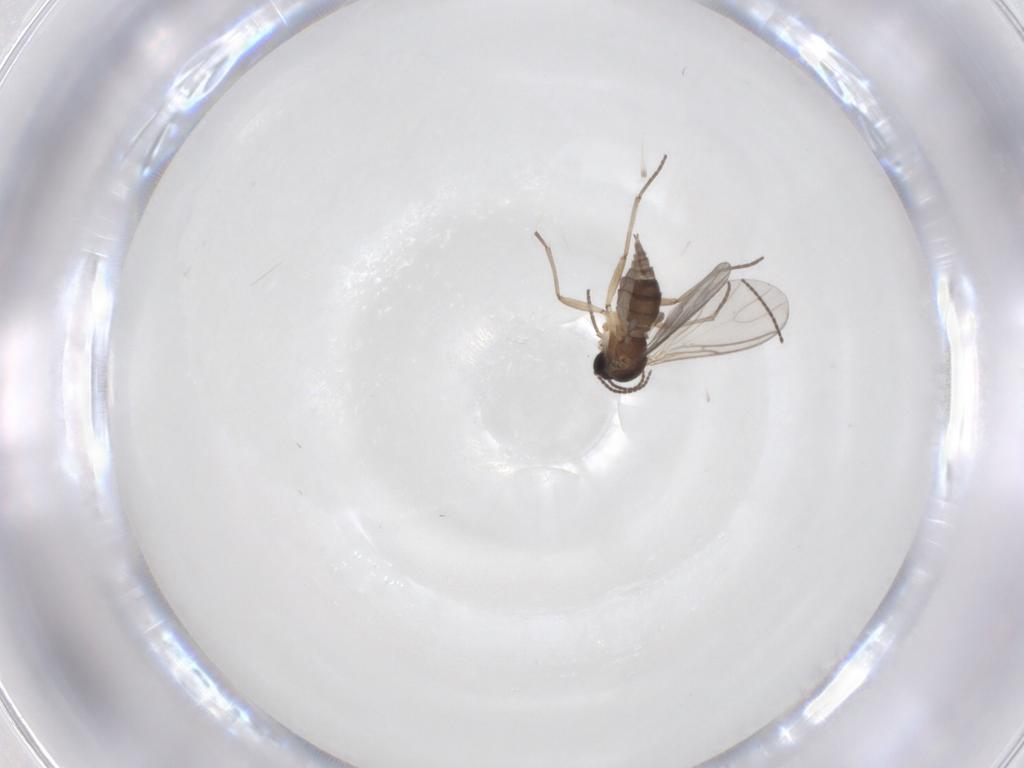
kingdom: Animalia
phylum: Arthropoda
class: Insecta
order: Diptera
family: Sciaridae
